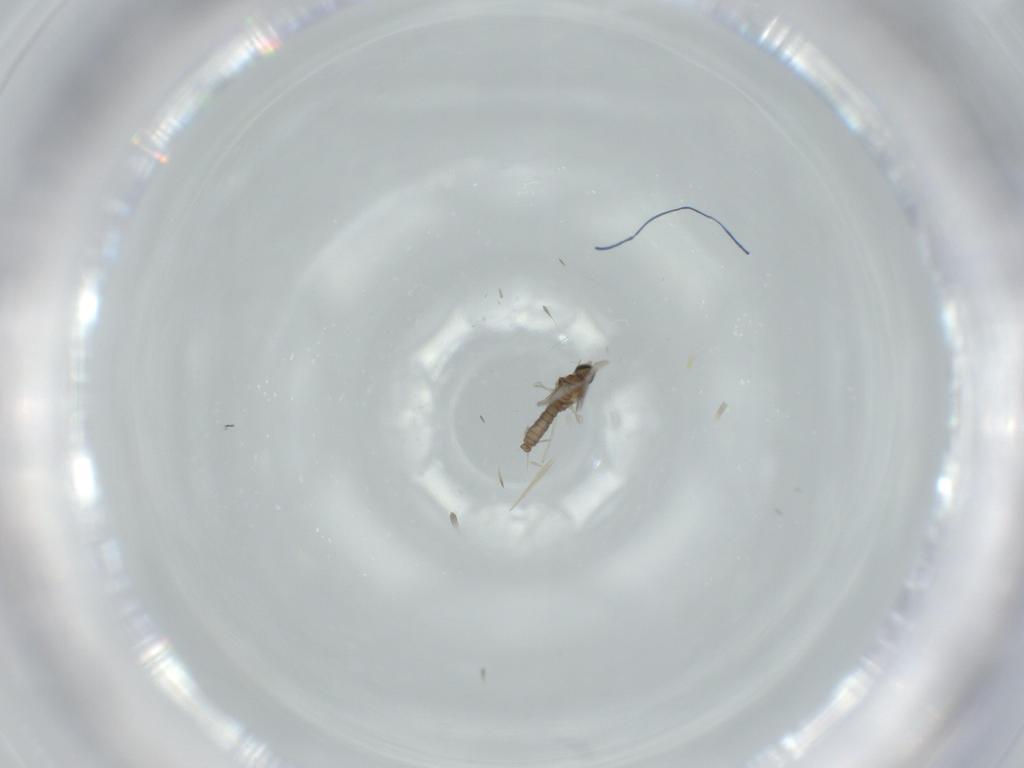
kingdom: Animalia
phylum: Arthropoda
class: Insecta
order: Diptera
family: Cecidomyiidae
